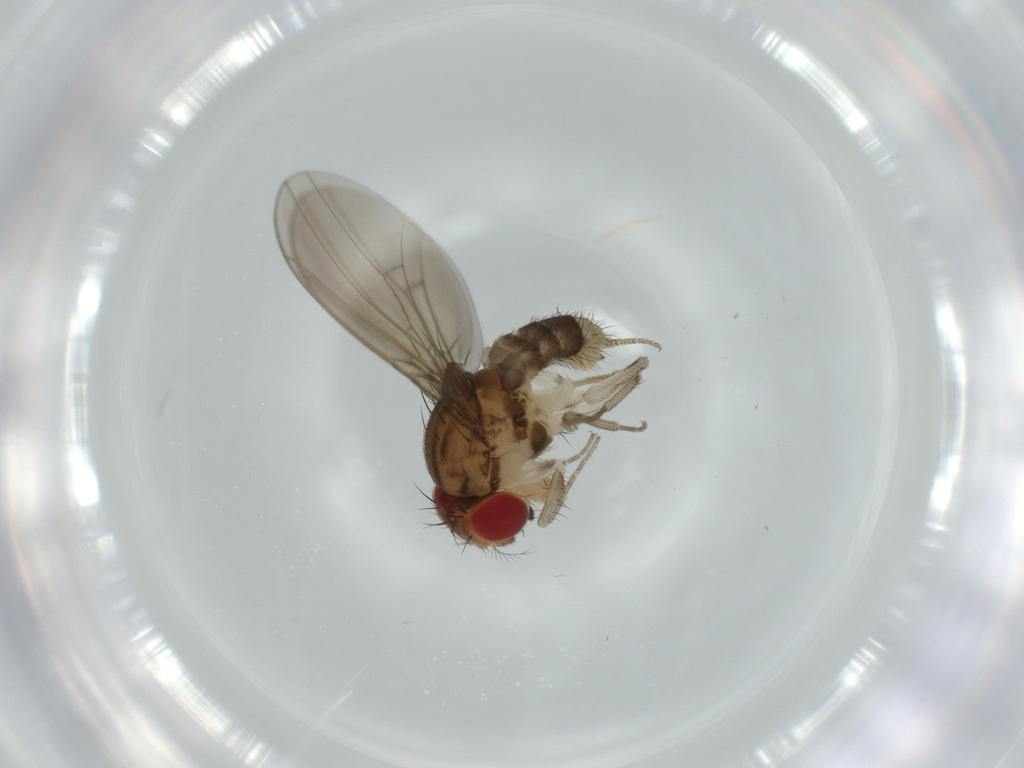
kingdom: Animalia
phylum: Arthropoda
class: Insecta
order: Diptera
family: Drosophilidae
